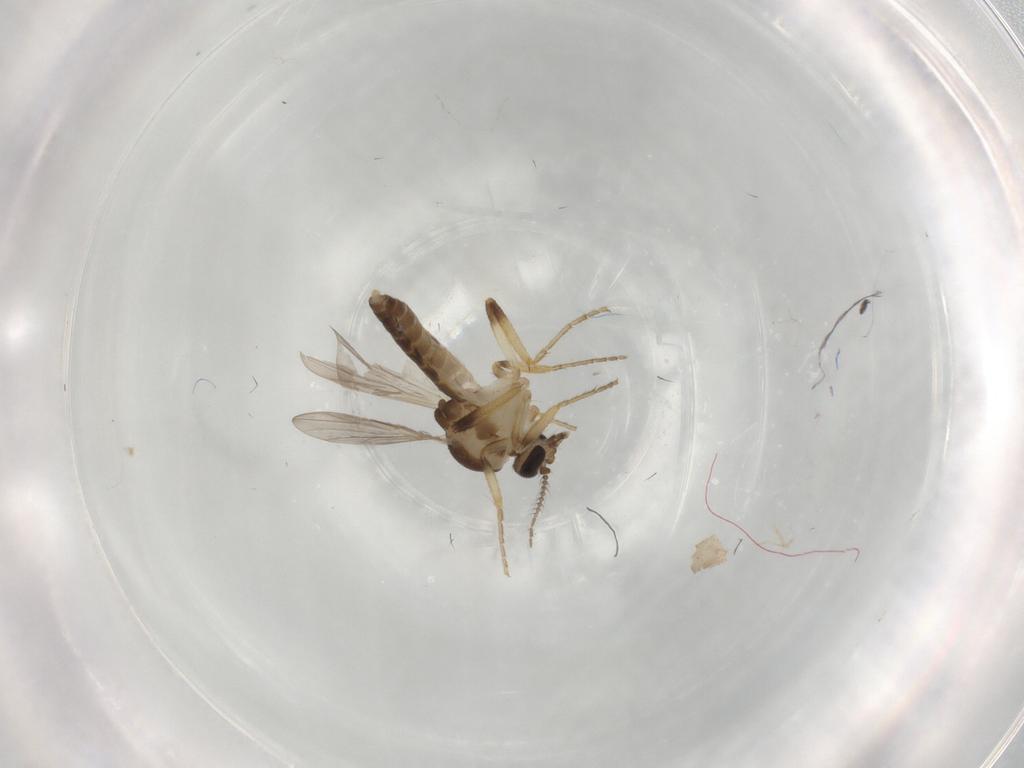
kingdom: Animalia
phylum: Arthropoda
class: Insecta
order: Diptera
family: Ceratopogonidae
